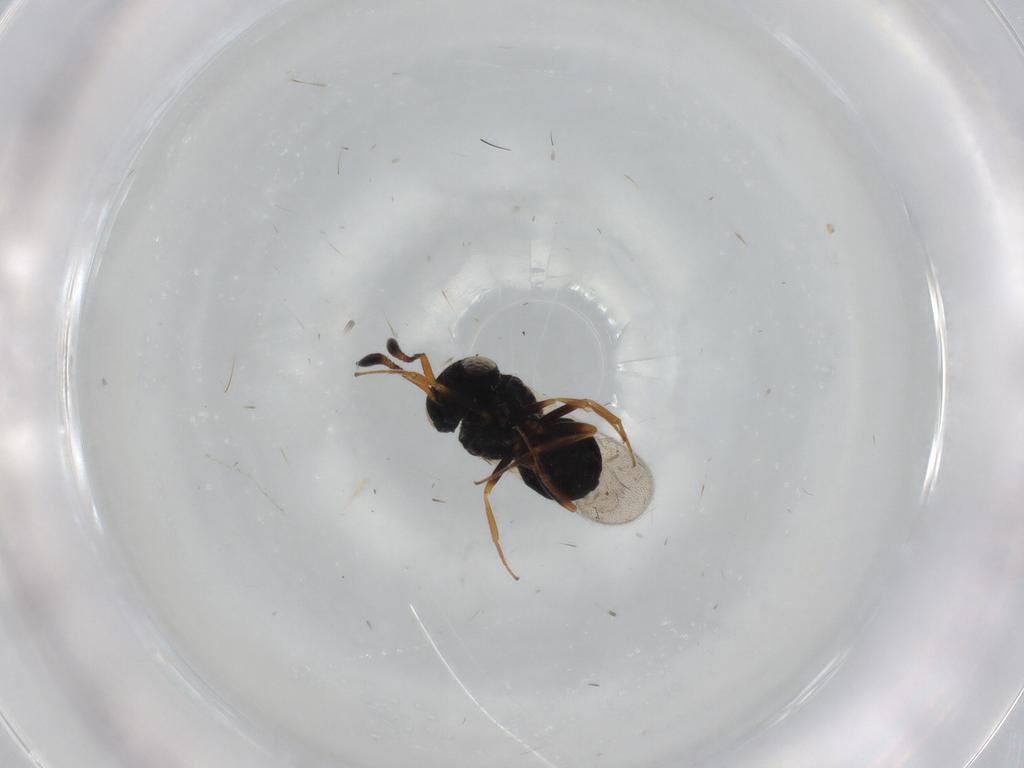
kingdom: Animalia
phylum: Arthropoda
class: Insecta
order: Hymenoptera
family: Scelionidae
